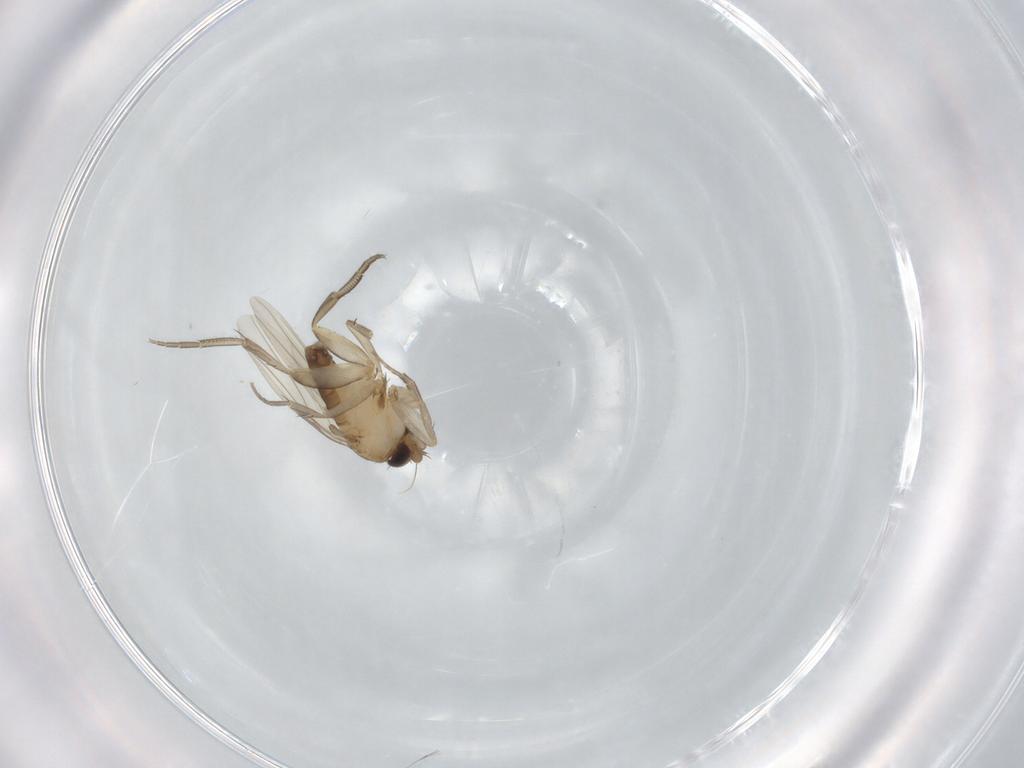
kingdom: Animalia
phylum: Arthropoda
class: Insecta
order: Diptera
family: Phoridae
